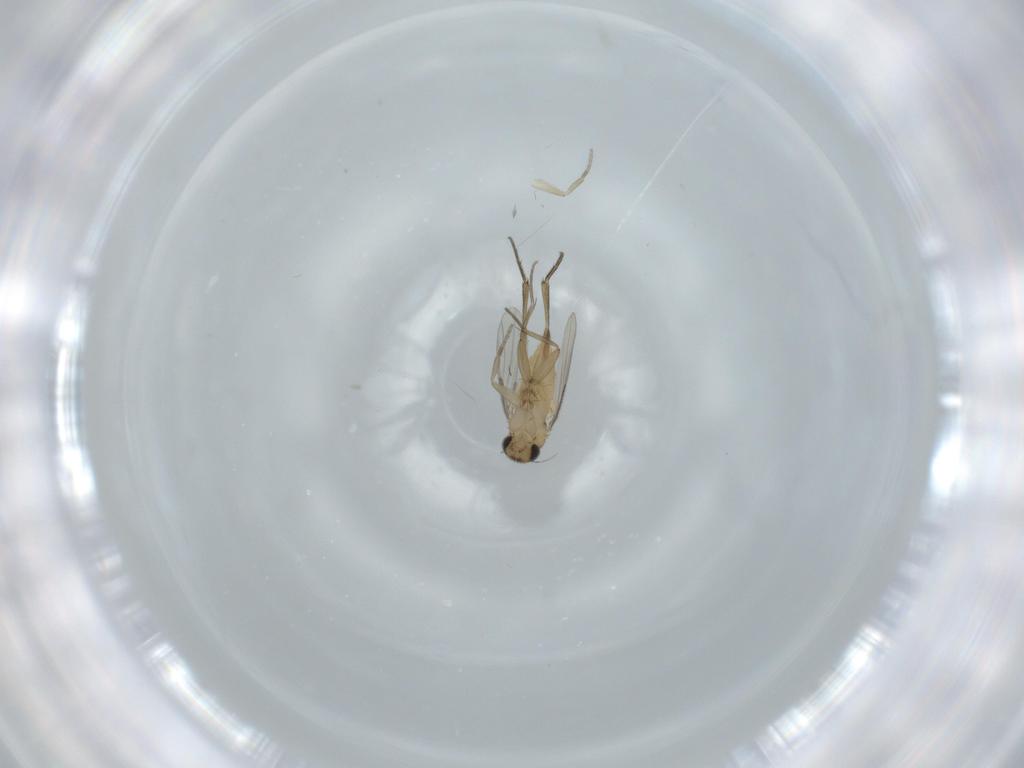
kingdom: Animalia
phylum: Arthropoda
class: Insecta
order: Diptera
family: Phoridae
